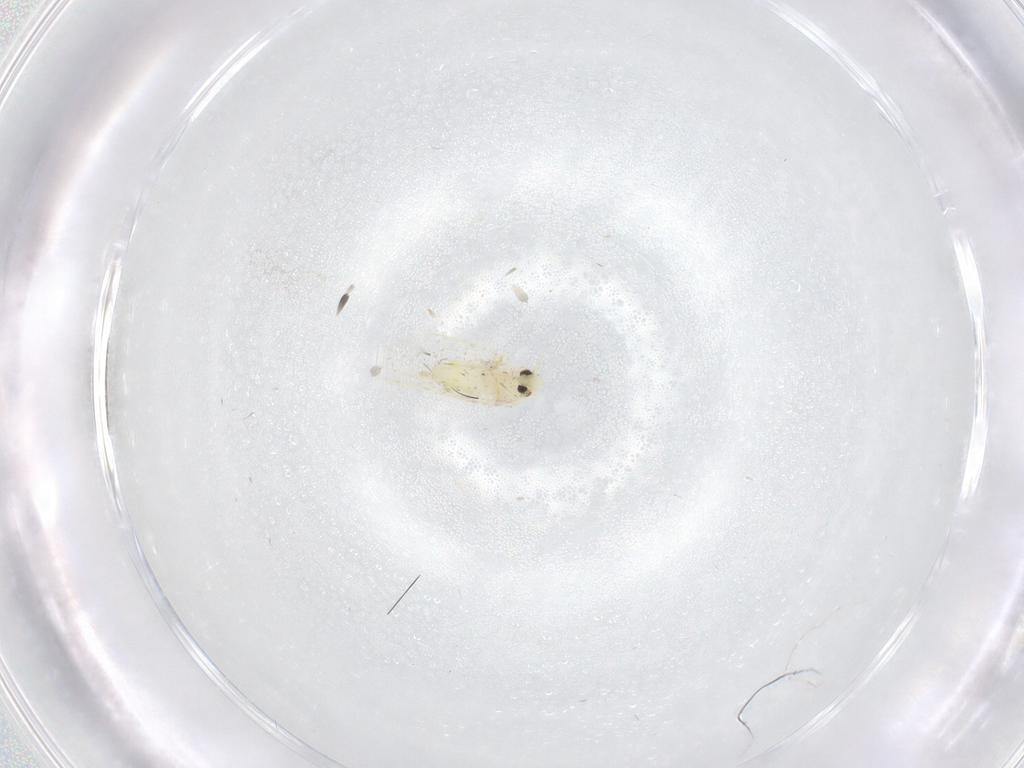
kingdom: Animalia
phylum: Arthropoda
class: Insecta
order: Hemiptera
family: Aleyrodidae
